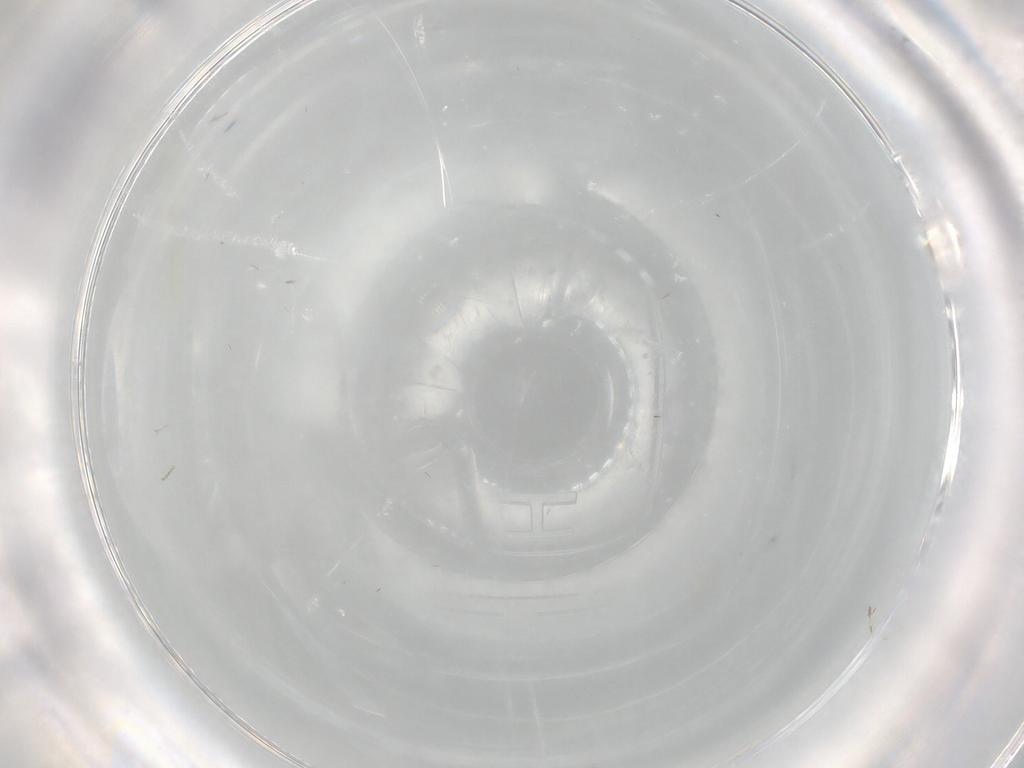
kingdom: Animalia
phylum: Arthropoda
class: Insecta
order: Diptera
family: Cecidomyiidae
